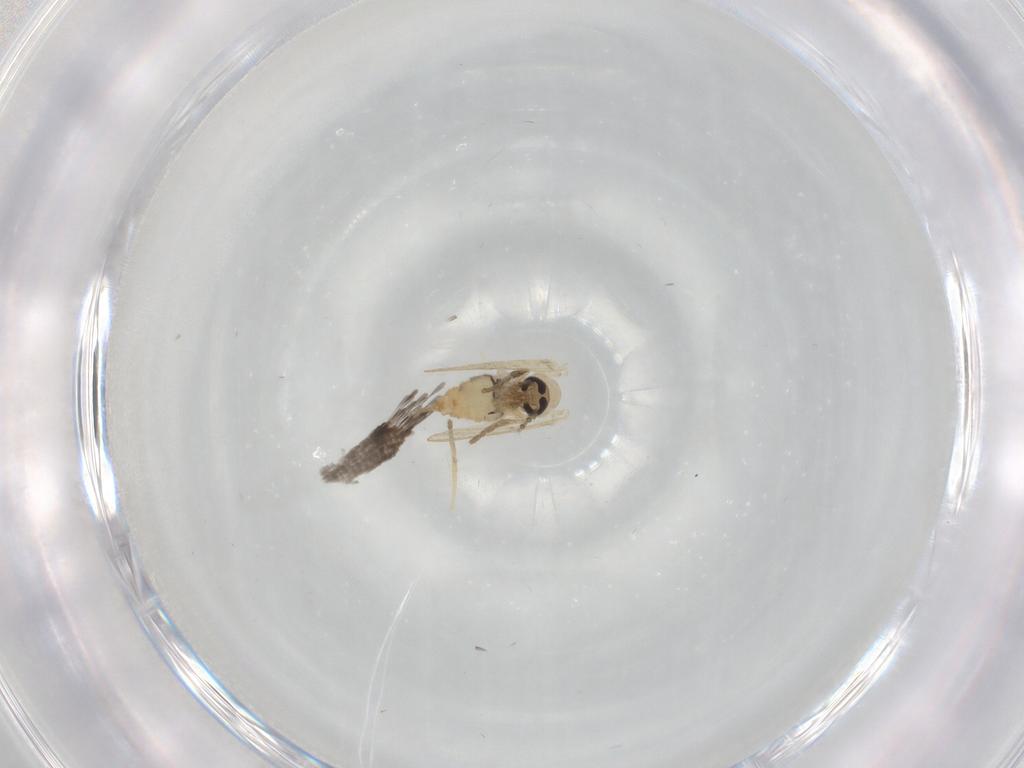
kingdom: Animalia
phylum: Arthropoda
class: Insecta
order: Diptera
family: Psychodidae
